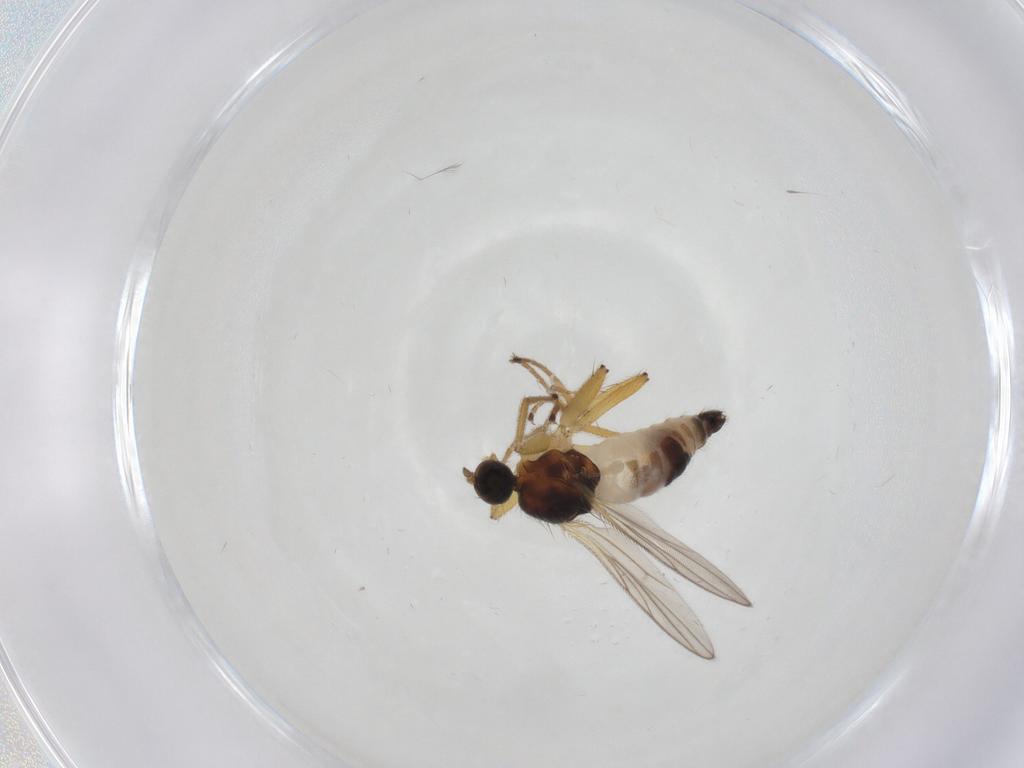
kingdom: Animalia
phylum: Arthropoda
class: Insecta
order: Diptera
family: Hybotidae
